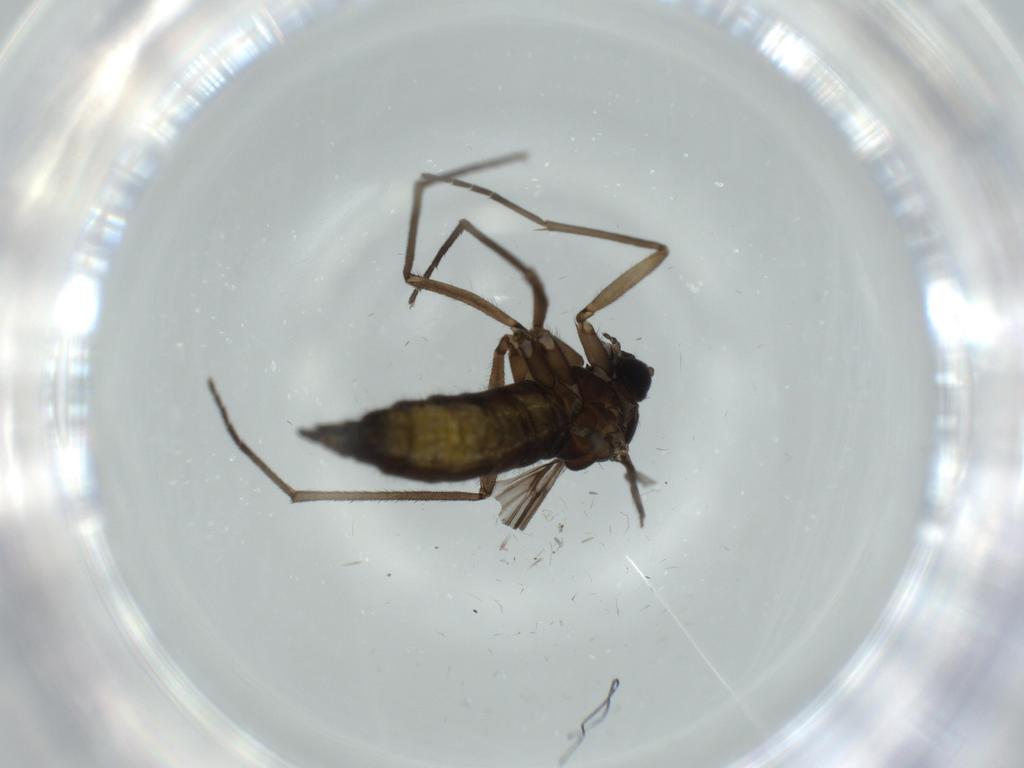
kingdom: Animalia
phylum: Arthropoda
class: Insecta
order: Diptera
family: Sciaridae
